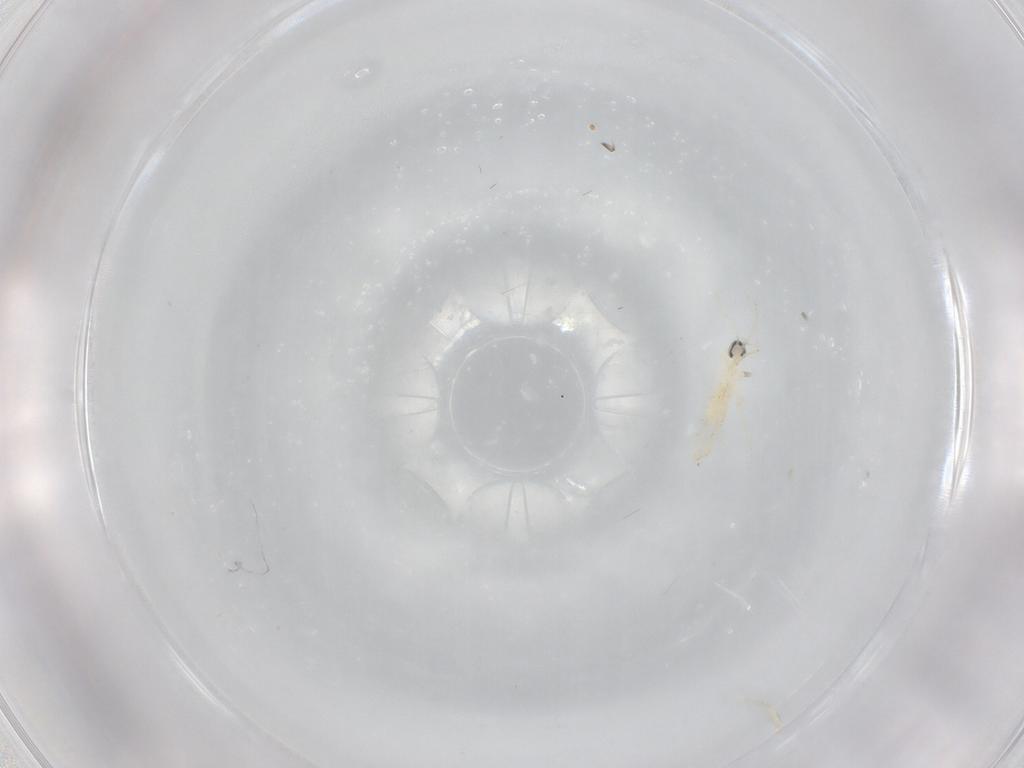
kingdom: Animalia
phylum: Arthropoda
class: Insecta
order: Diptera
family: Cecidomyiidae
